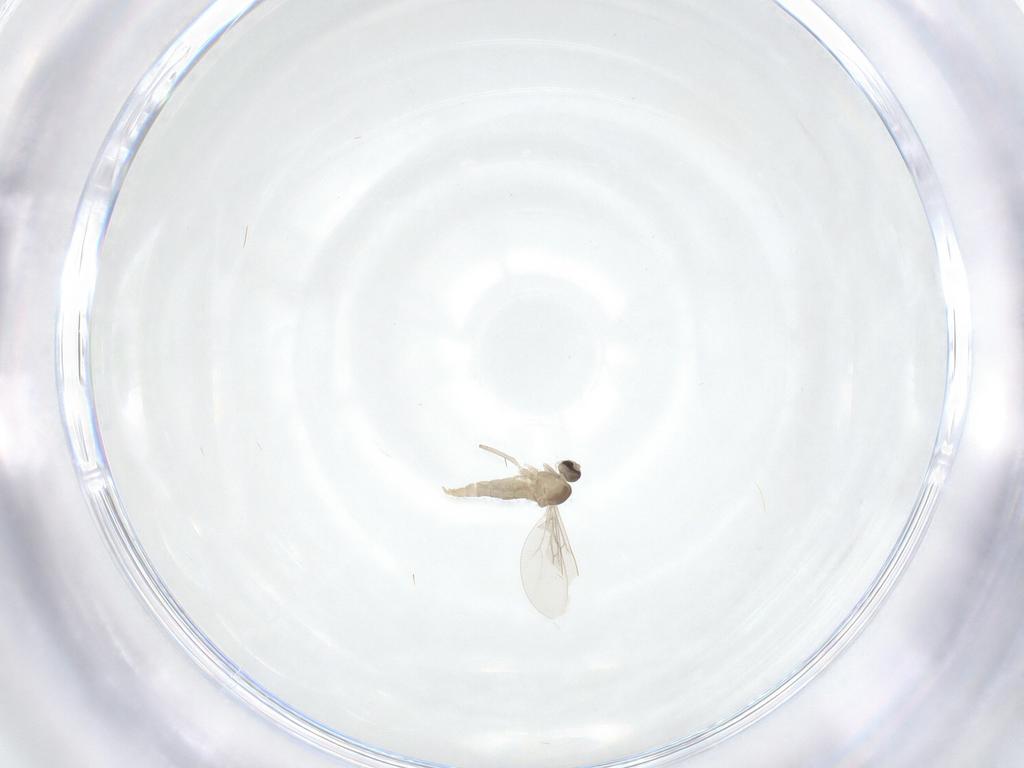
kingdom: Animalia
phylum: Arthropoda
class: Insecta
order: Diptera
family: Cecidomyiidae
